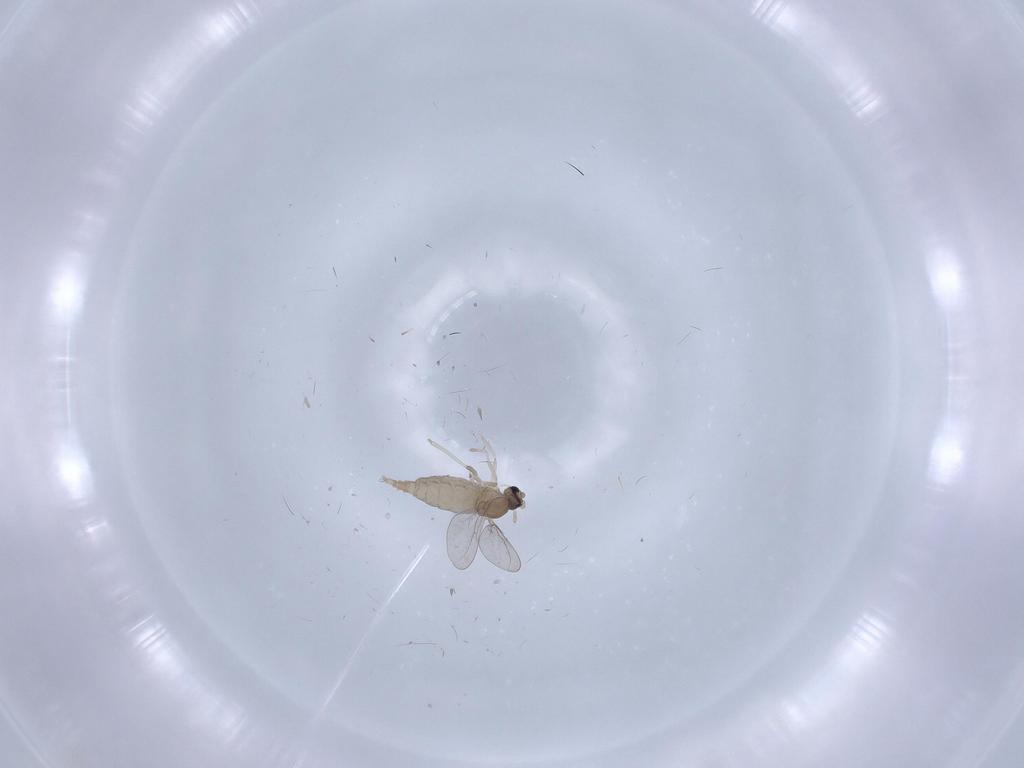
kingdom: Animalia
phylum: Arthropoda
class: Insecta
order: Diptera
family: Chironomidae
